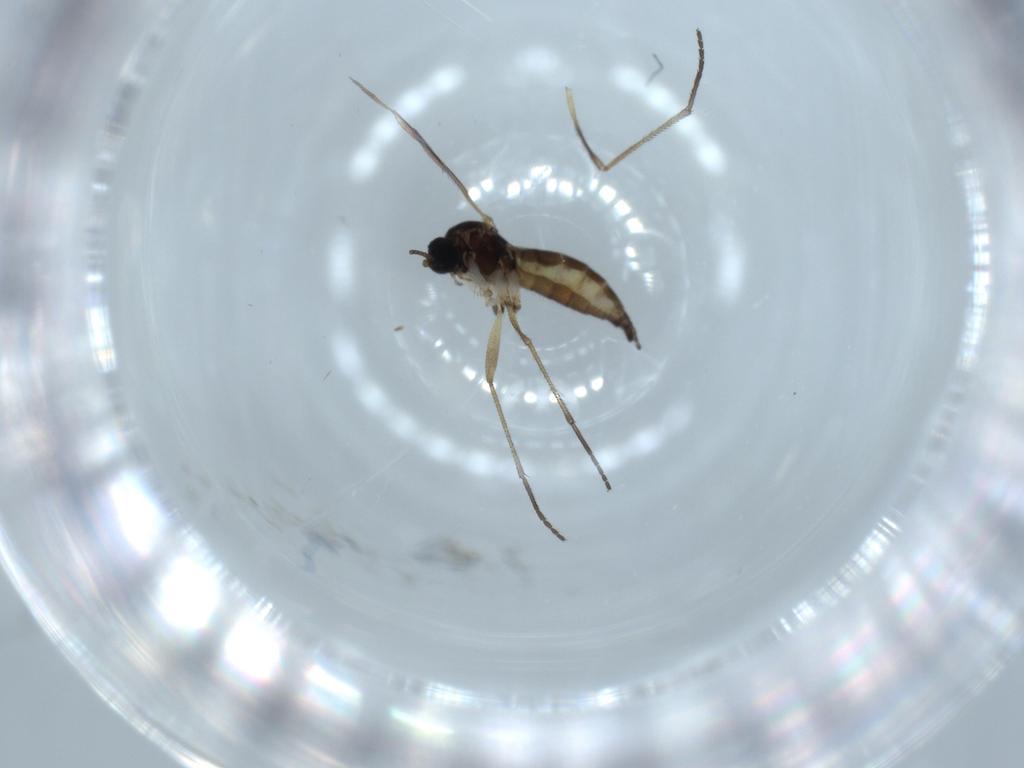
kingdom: Animalia
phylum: Arthropoda
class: Insecta
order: Diptera
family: Sciaridae
